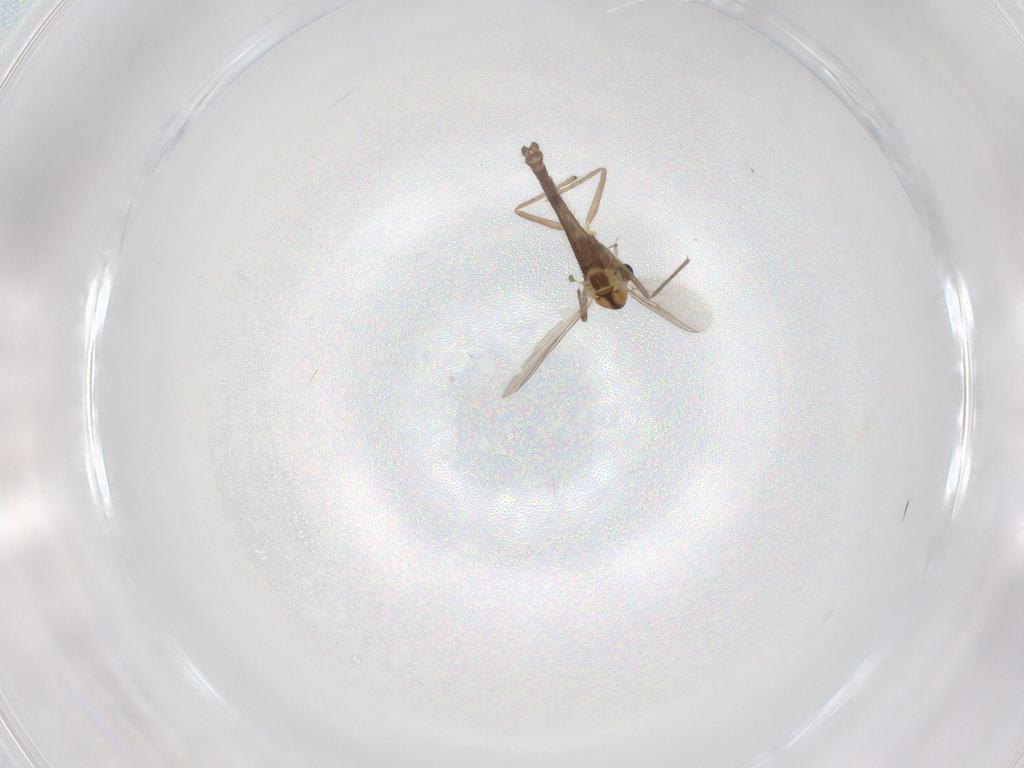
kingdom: Animalia
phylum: Arthropoda
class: Insecta
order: Diptera
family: Chironomidae
